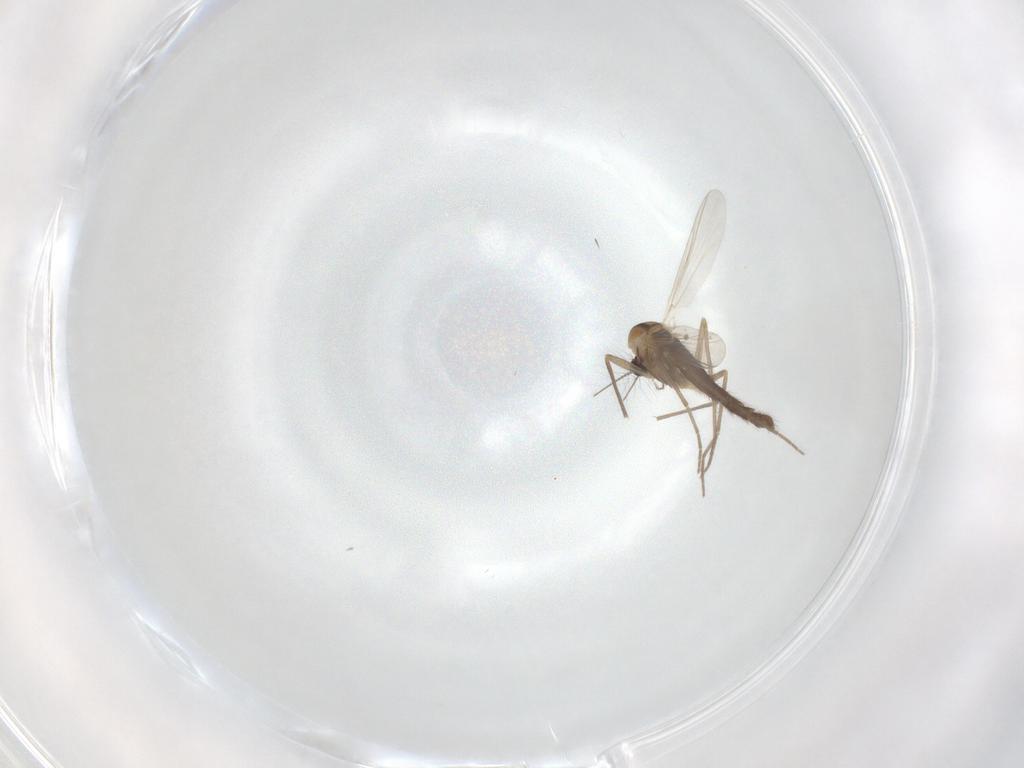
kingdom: Animalia
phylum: Arthropoda
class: Insecta
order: Diptera
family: Chironomidae
